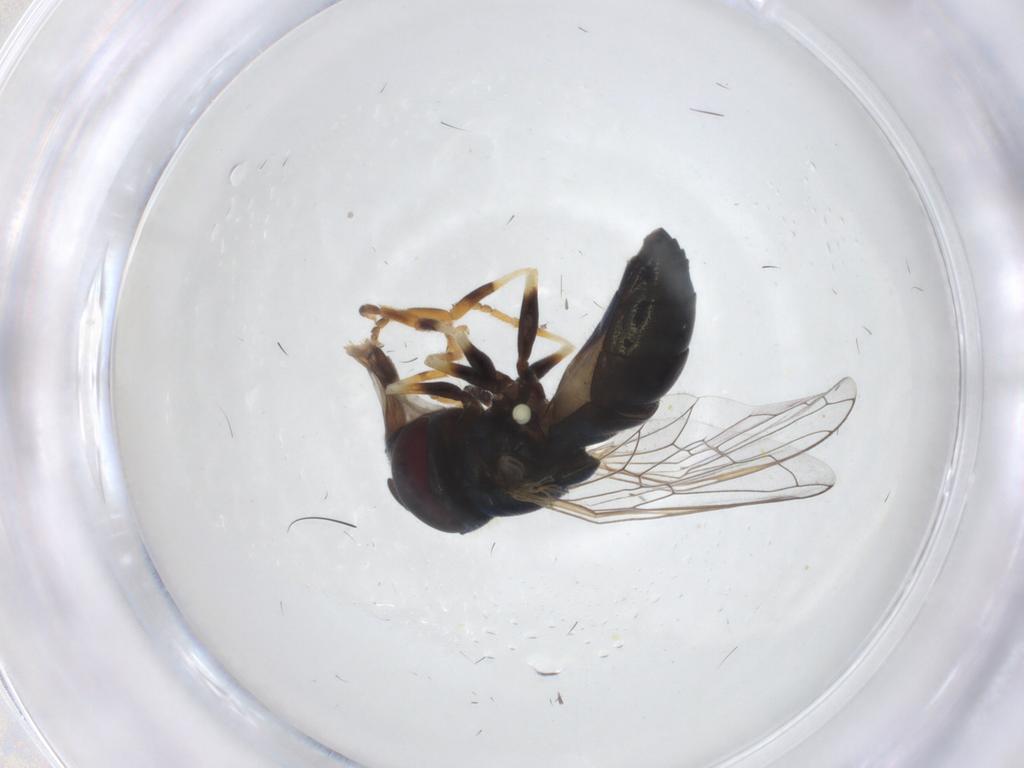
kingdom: Animalia
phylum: Arthropoda
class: Insecta
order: Diptera
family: Syrphidae
